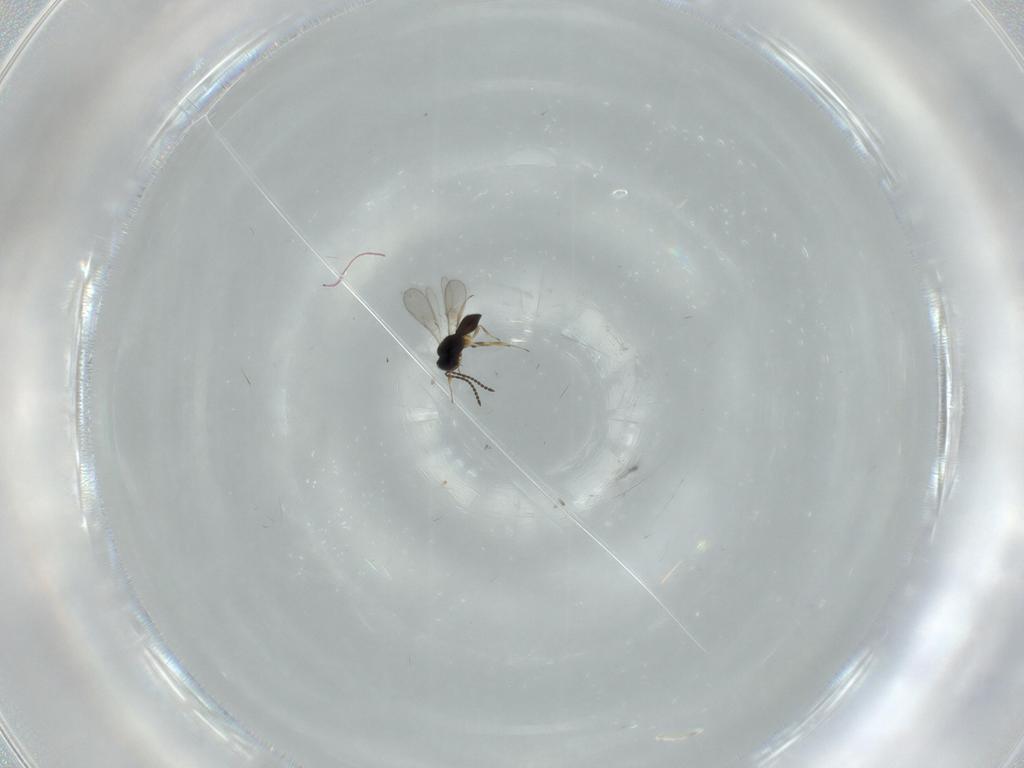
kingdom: Animalia
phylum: Arthropoda
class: Insecta
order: Hymenoptera
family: Scelionidae
